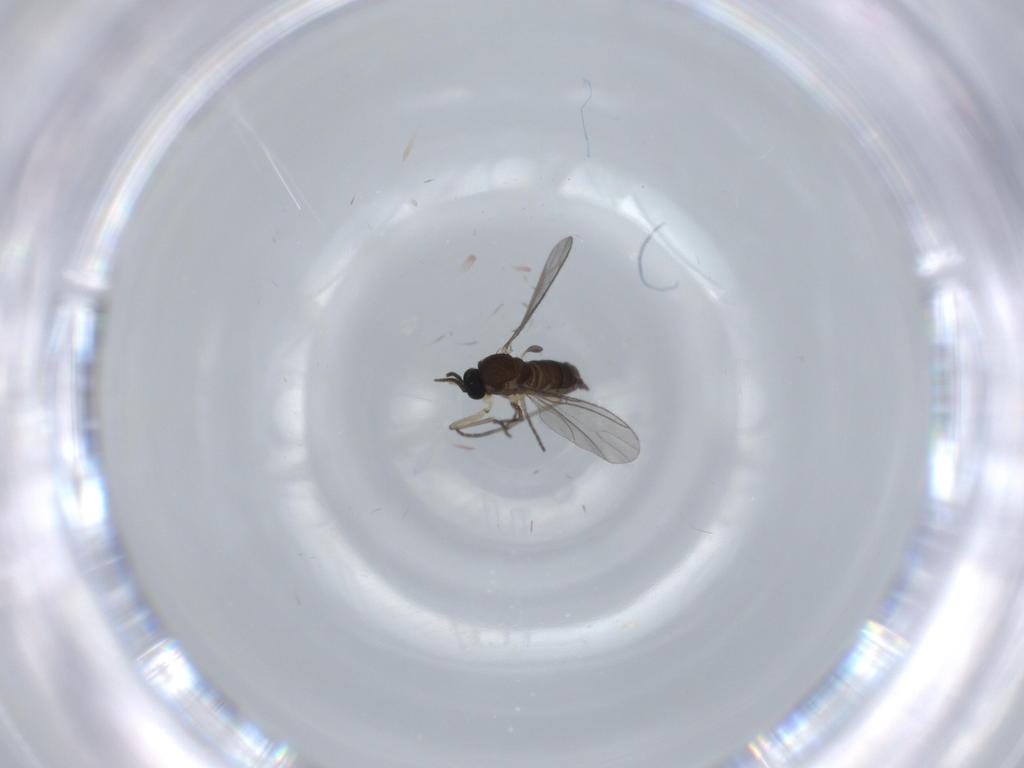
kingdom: Animalia
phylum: Arthropoda
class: Insecta
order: Diptera
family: Sciaridae
